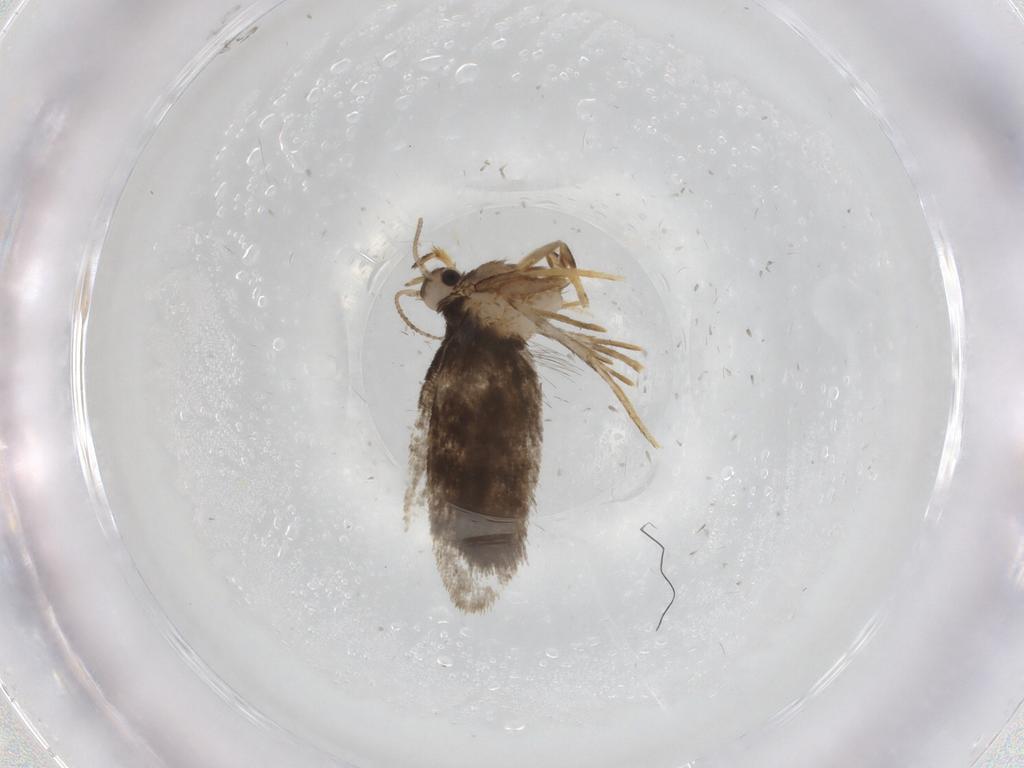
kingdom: Animalia
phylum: Arthropoda
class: Insecta
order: Lepidoptera
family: Psychidae
